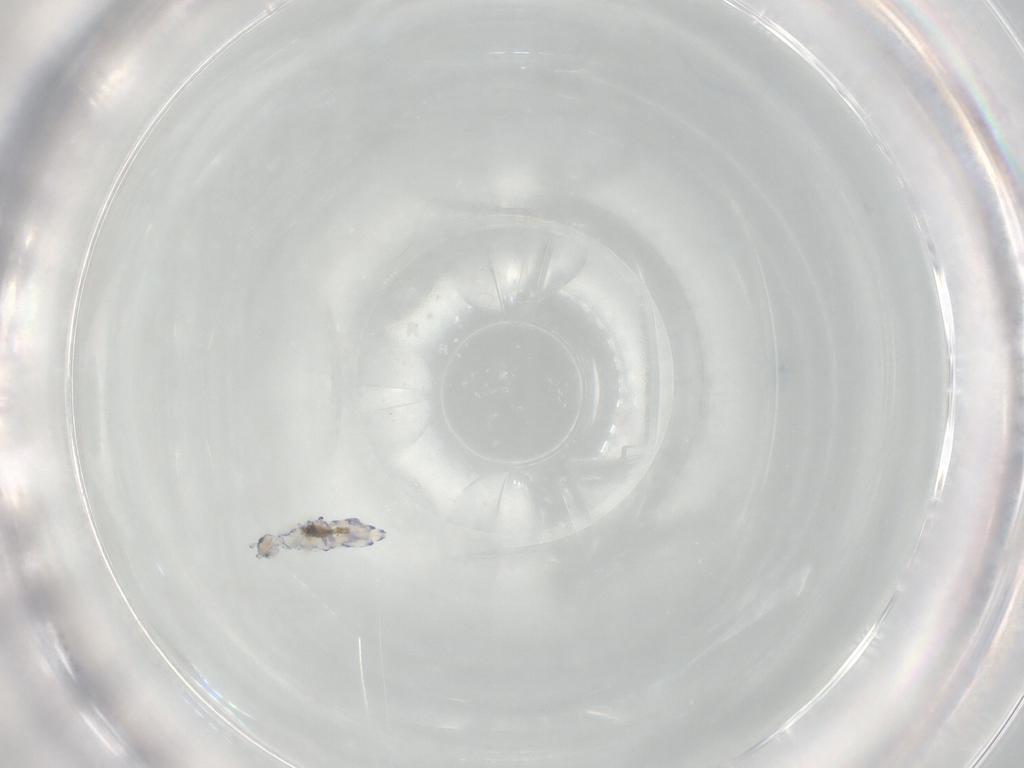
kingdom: Animalia
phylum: Arthropoda
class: Collembola
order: Entomobryomorpha
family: Entomobryidae
